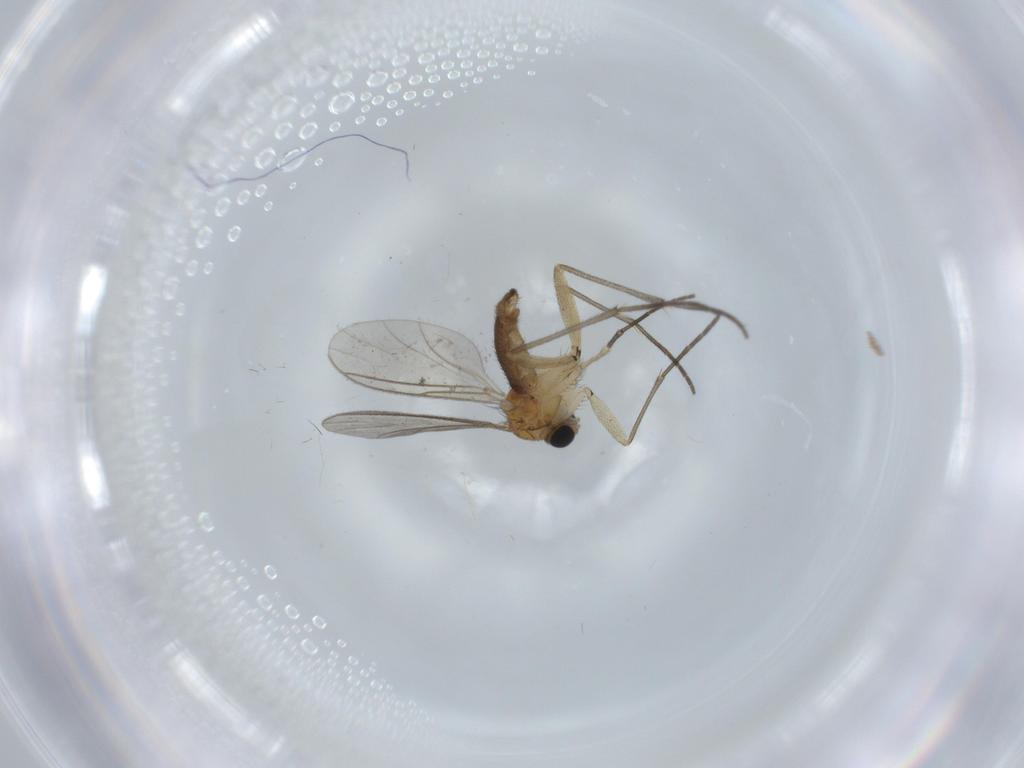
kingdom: Animalia
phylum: Arthropoda
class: Insecta
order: Diptera
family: Sciaridae
